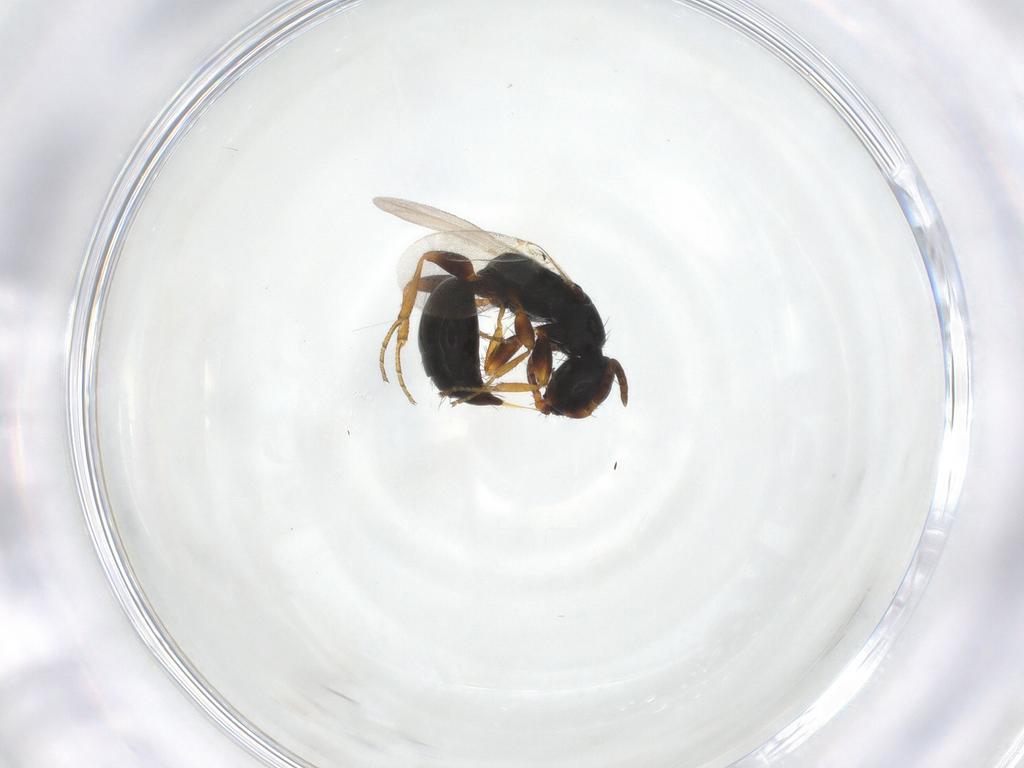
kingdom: Animalia
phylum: Arthropoda
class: Insecta
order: Hymenoptera
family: Bethylidae
